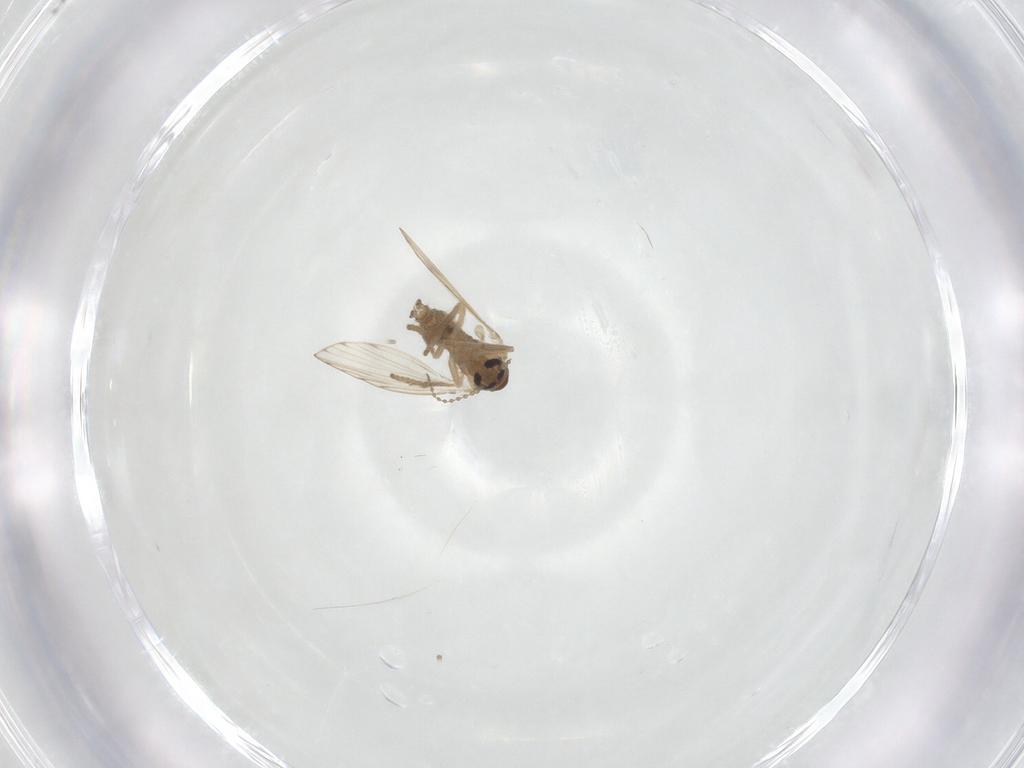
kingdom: Animalia
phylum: Arthropoda
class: Insecta
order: Diptera
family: Psychodidae
